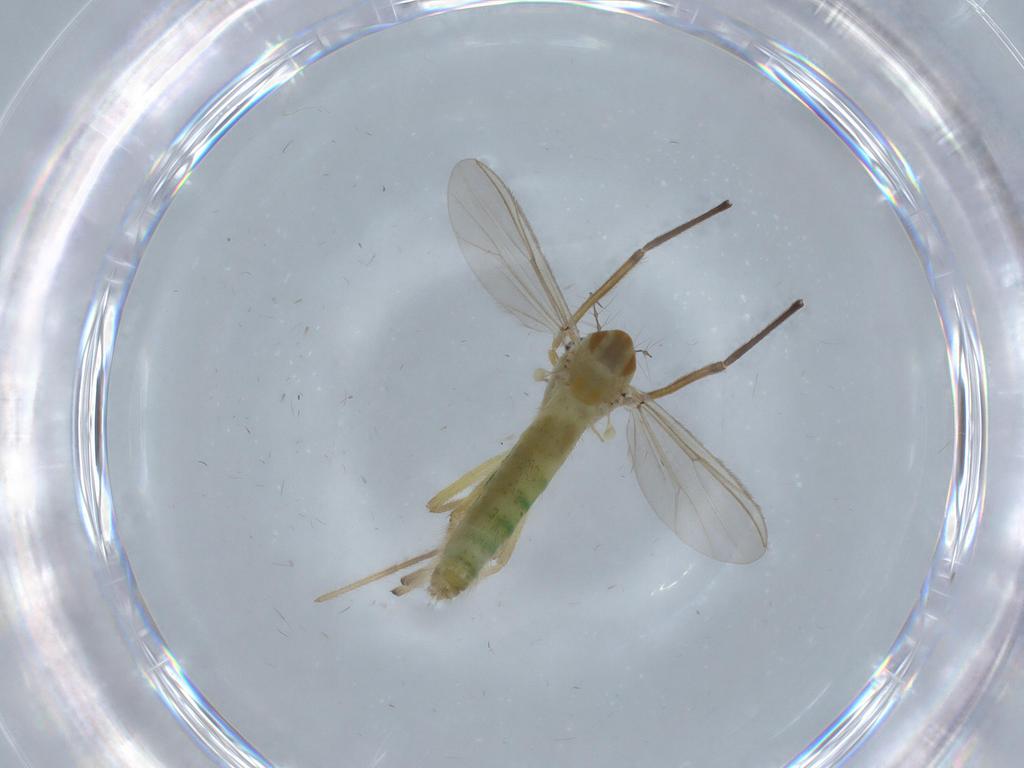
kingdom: Animalia
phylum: Arthropoda
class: Insecta
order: Diptera
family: Chironomidae
